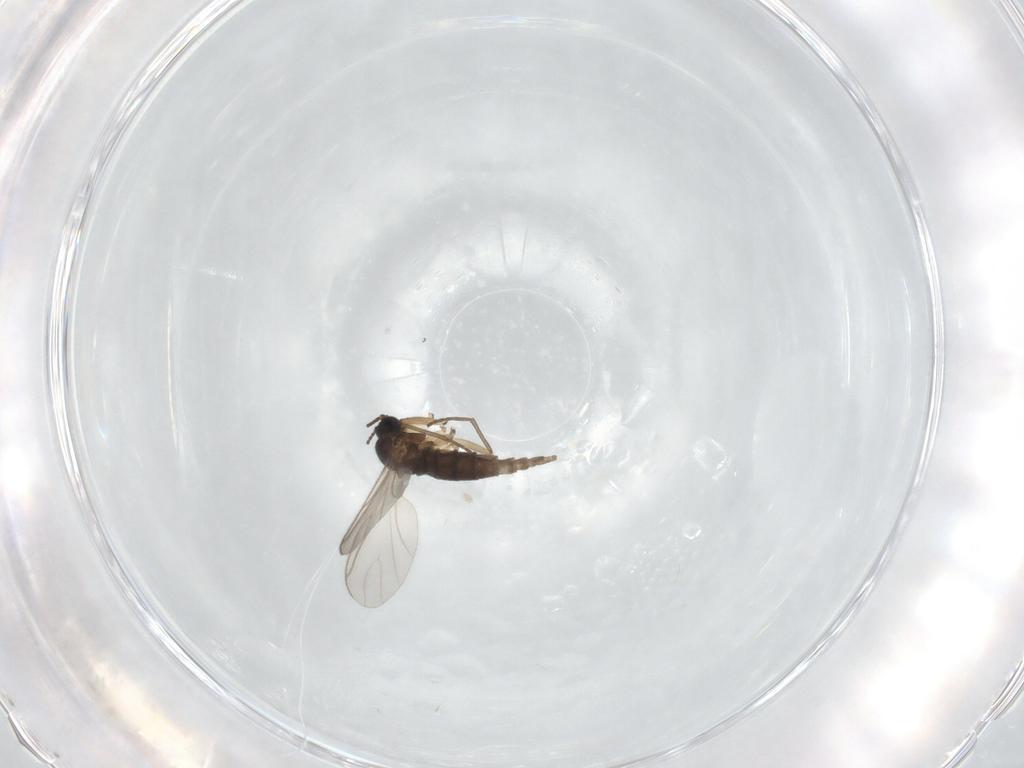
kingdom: Animalia
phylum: Arthropoda
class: Insecta
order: Diptera
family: Sciaridae
